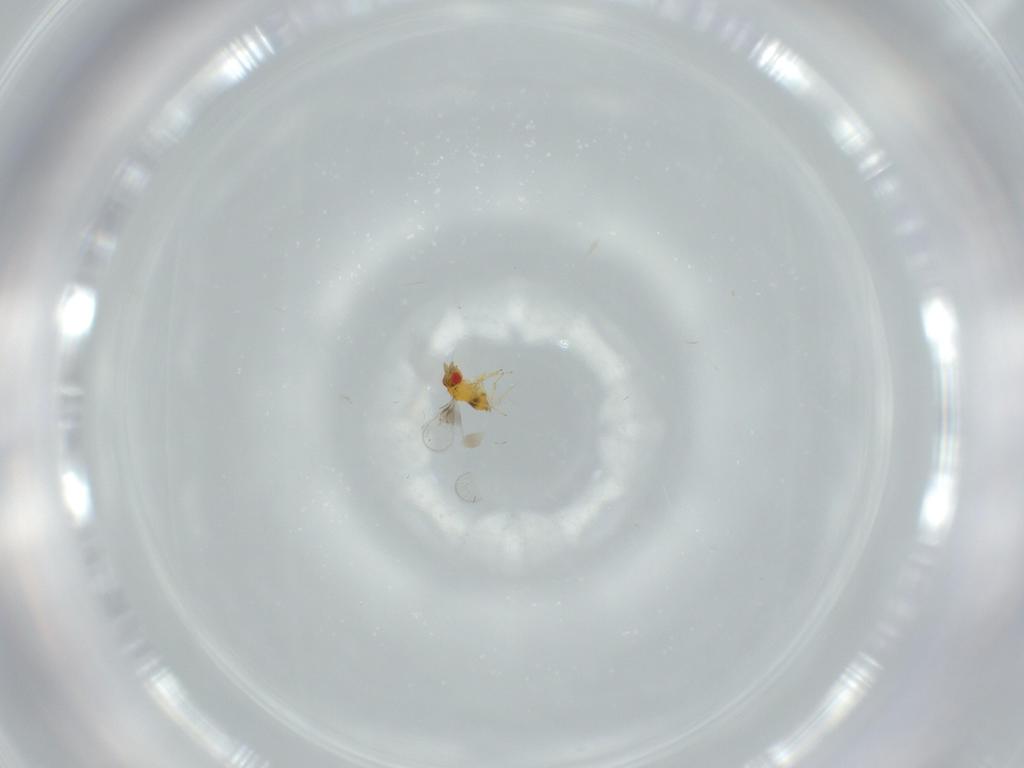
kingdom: Animalia
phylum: Arthropoda
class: Insecta
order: Hymenoptera
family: Trichogrammatidae
